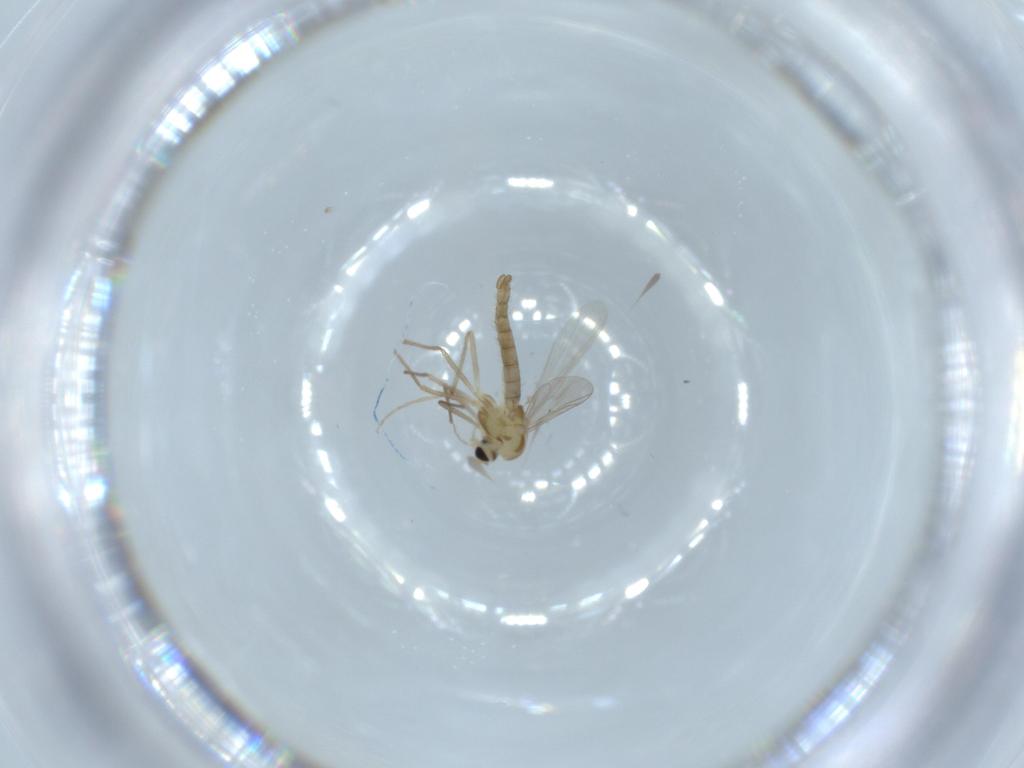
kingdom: Animalia
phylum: Arthropoda
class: Insecta
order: Diptera
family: Chironomidae
